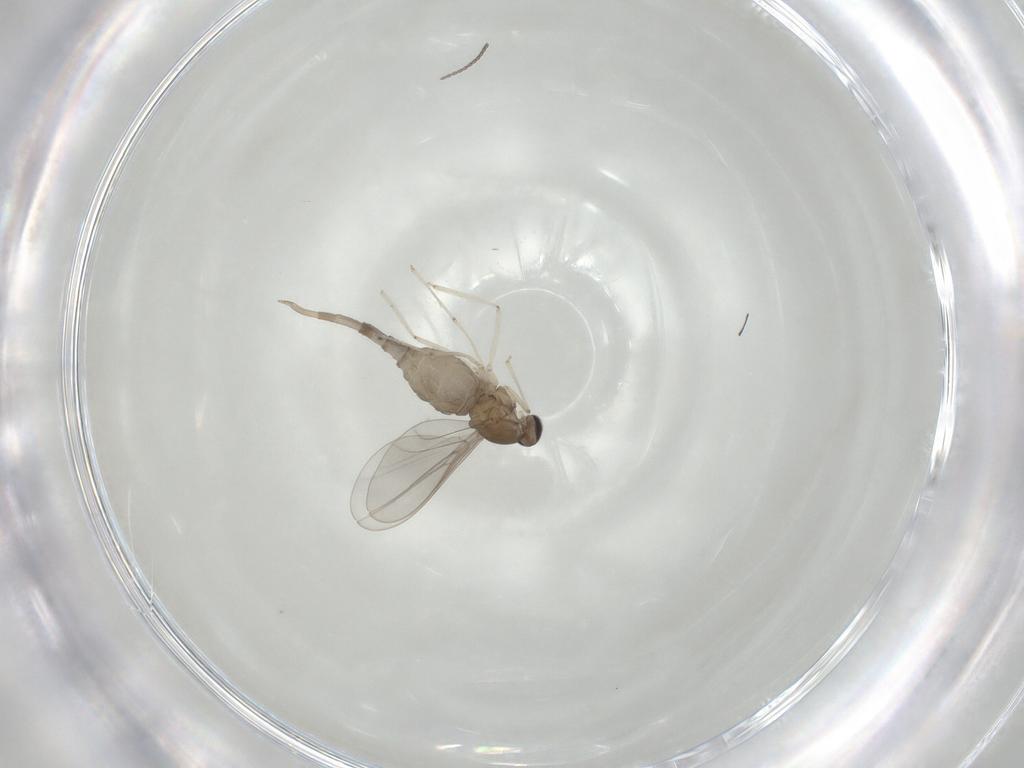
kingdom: Animalia
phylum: Arthropoda
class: Insecta
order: Diptera
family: Cecidomyiidae
